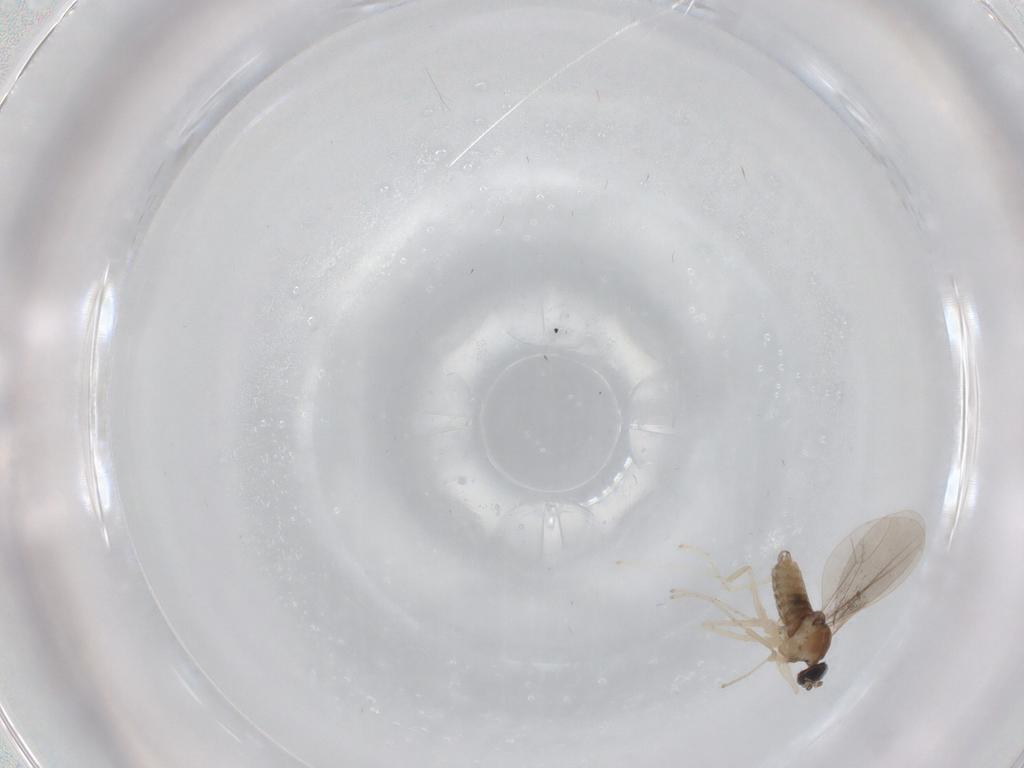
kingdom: Animalia
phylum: Arthropoda
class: Insecta
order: Diptera
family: Cecidomyiidae
